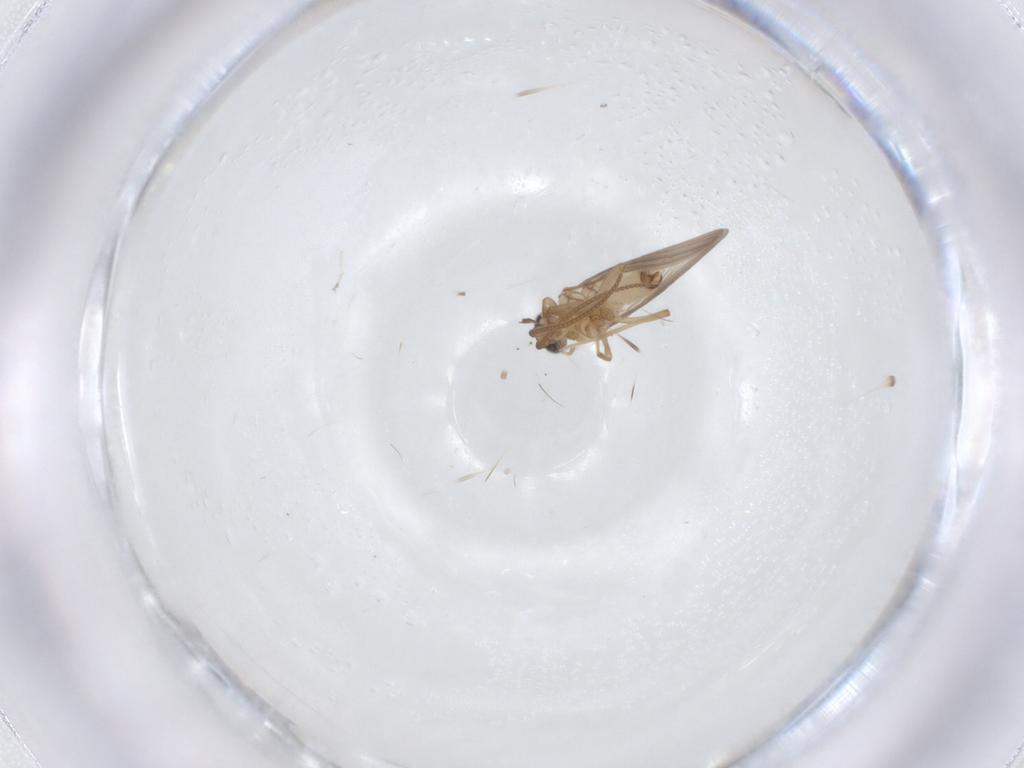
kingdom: Animalia
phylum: Arthropoda
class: Insecta
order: Neuroptera
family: Coniopterygidae
